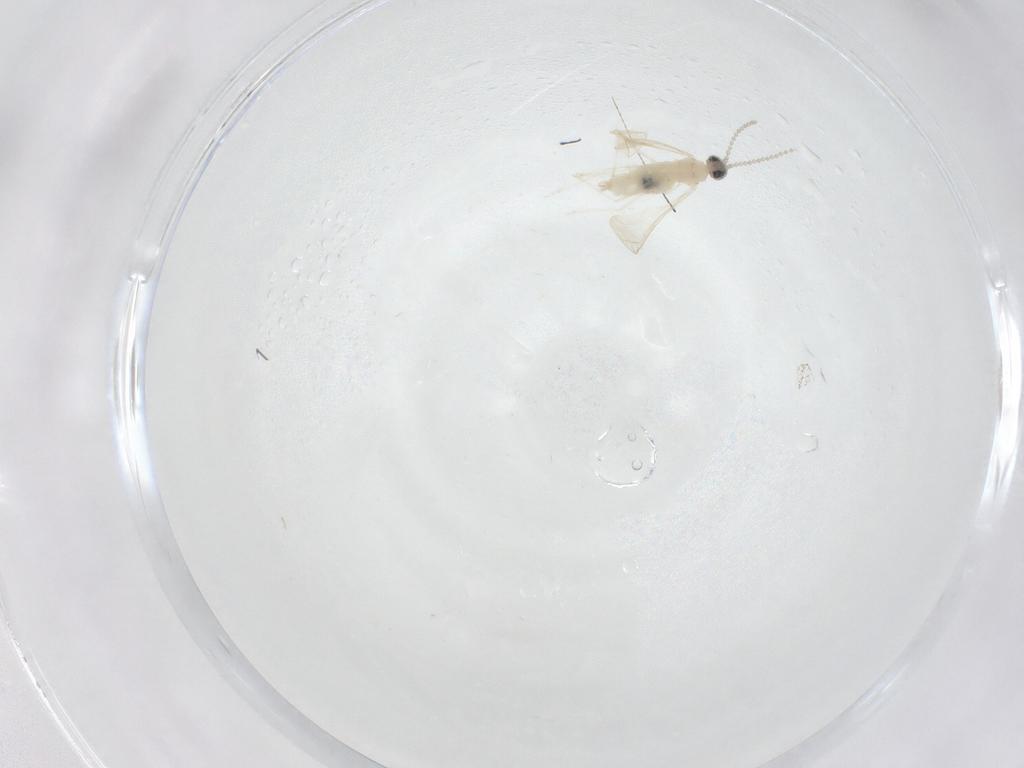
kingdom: Animalia
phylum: Arthropoda
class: Insecta
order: Diptera
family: Cecidomyiidae
